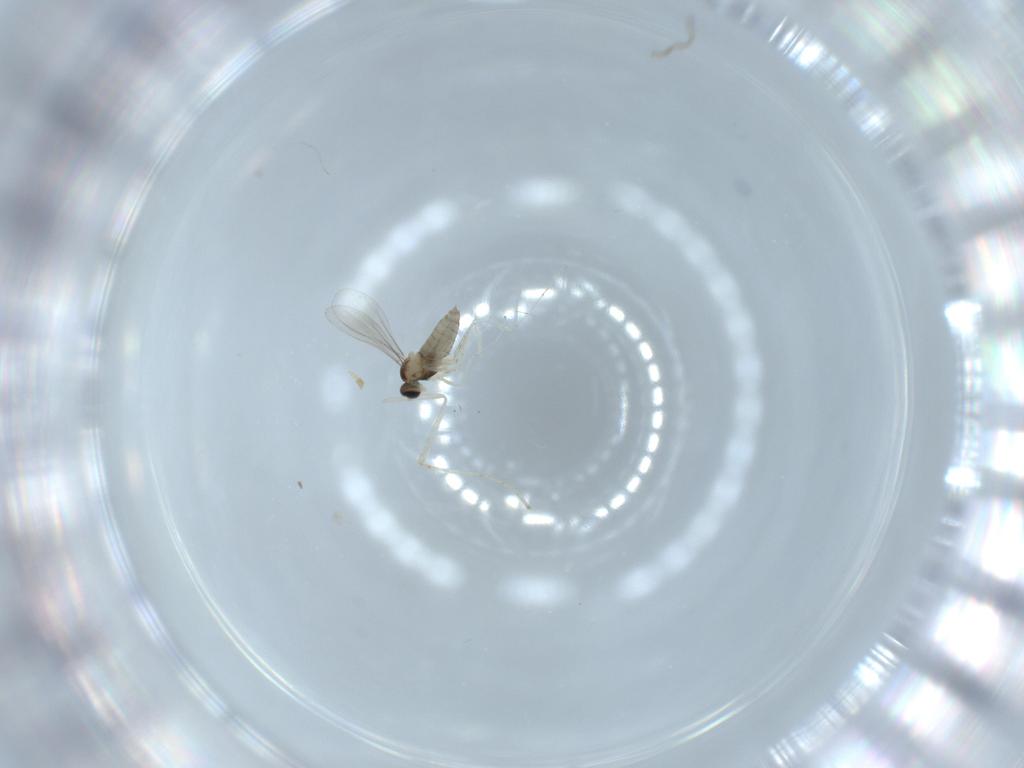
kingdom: Animalia
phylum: Arthropoda
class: Insecta
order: Diptera
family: Cecidomyiidae
